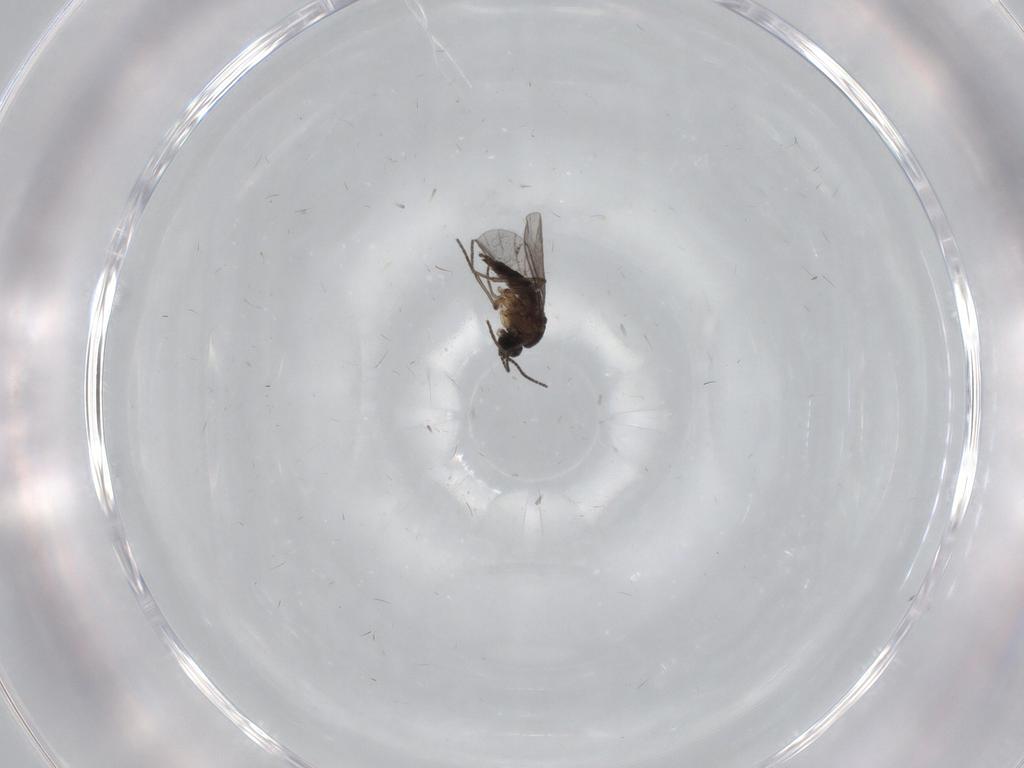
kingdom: Animalia
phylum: Arthropoda
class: Insecta
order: Diptera
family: Sciaridae
